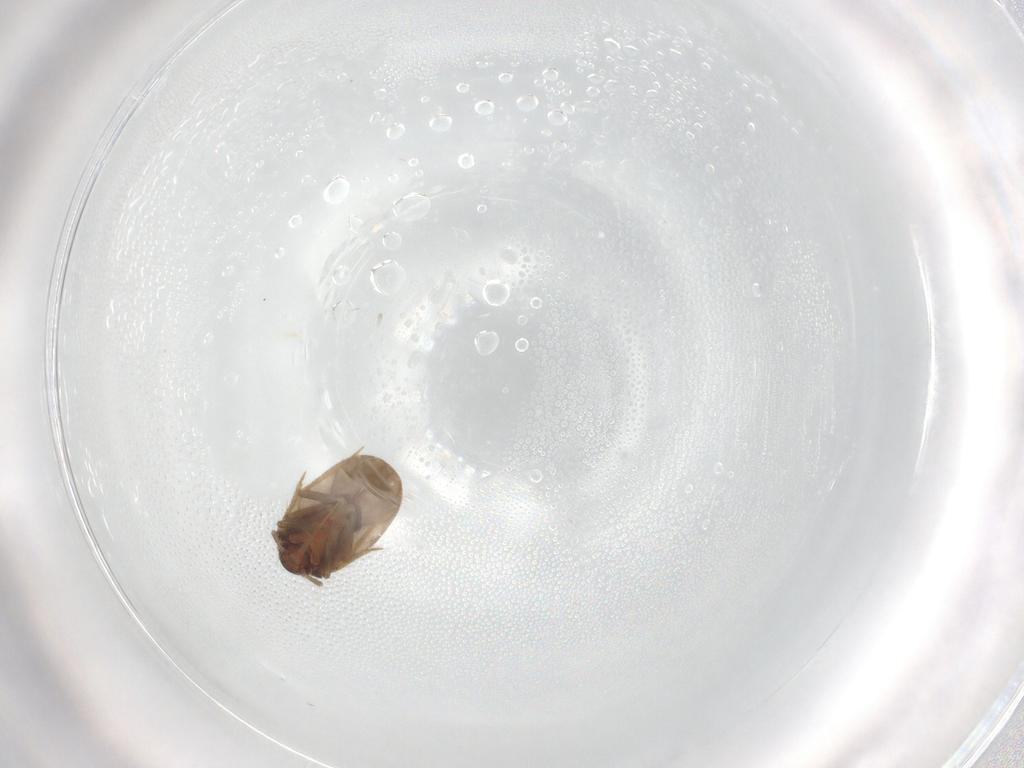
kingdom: Animalia
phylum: Arthropoda
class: Insecta
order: Hemiptera
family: Ceratocombidae
